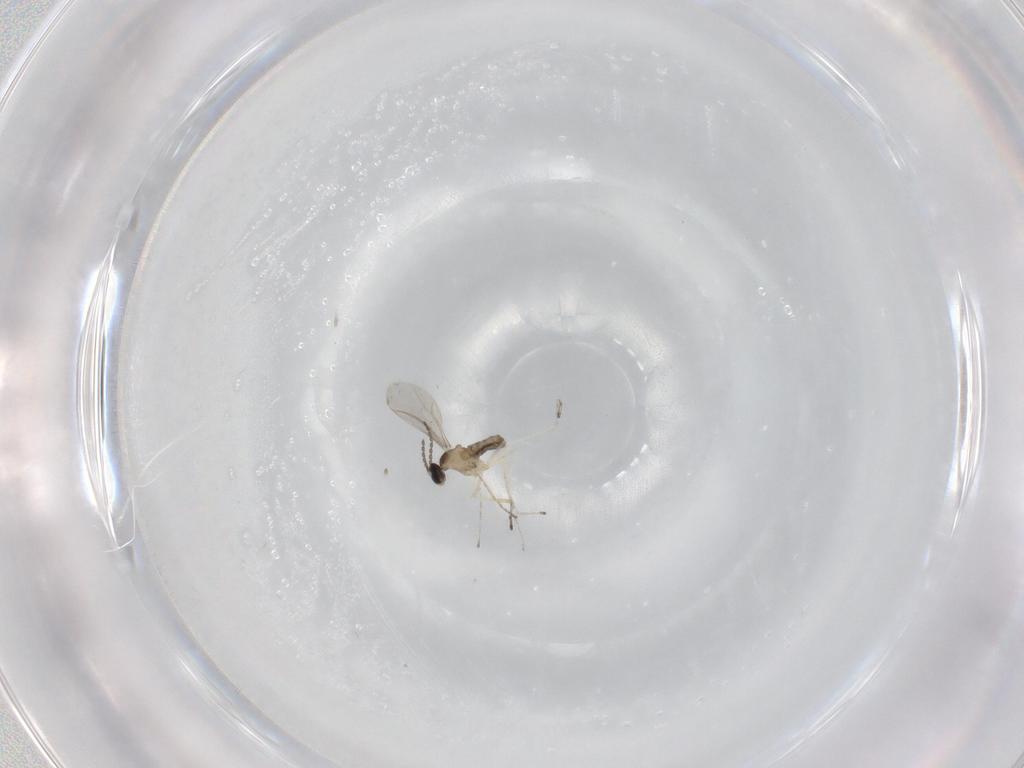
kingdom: Animalia
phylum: Arthropoda
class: Insecta
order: Diptera
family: Cecidomyiidae
